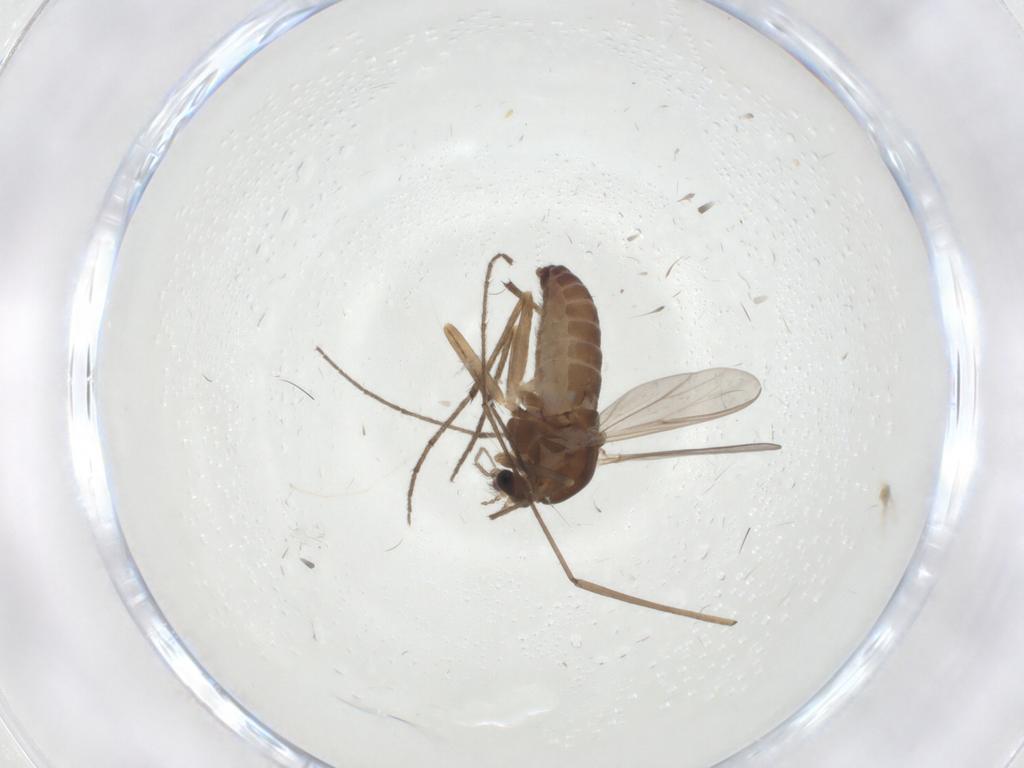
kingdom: Animalia
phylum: Arthropoda
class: Insecta
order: Diptera
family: Chironomidae
